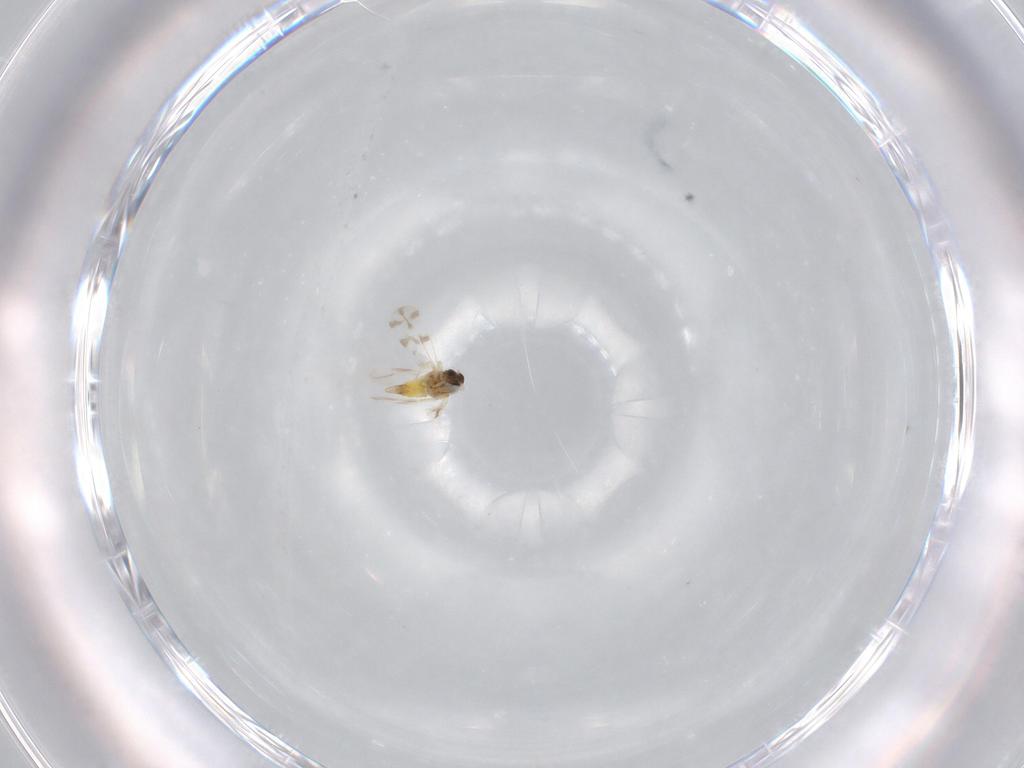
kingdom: Animalia
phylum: Arthropoda
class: Insecta
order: Hemiptera
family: Aleyrodidae
